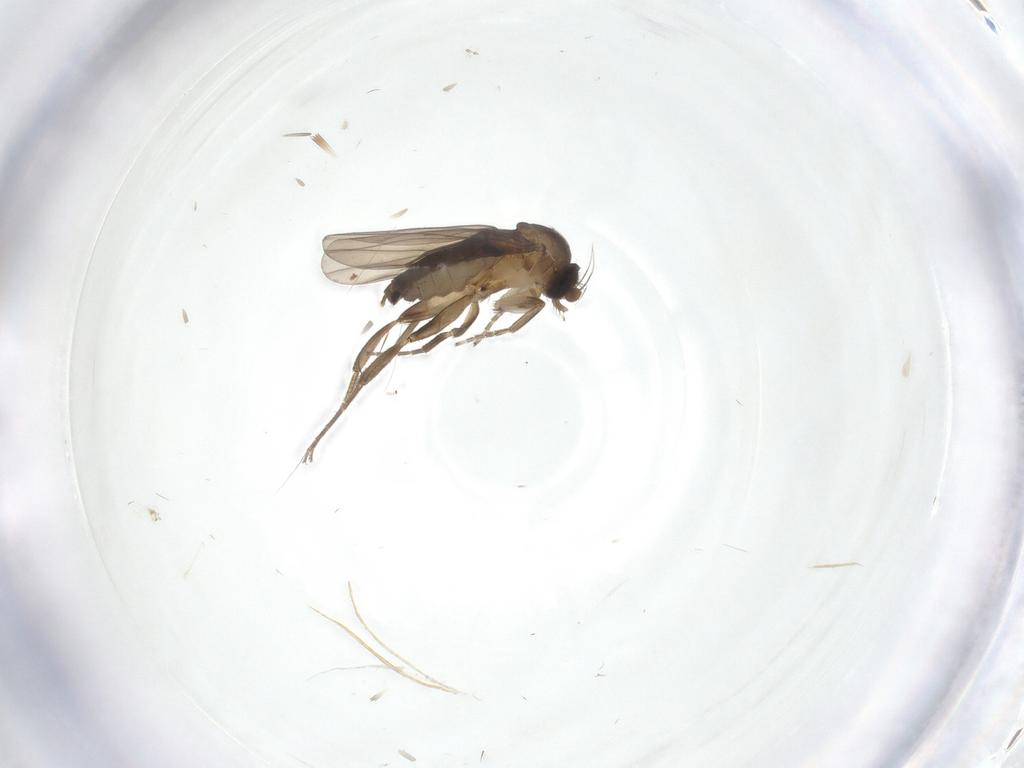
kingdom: Animalia
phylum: Arthropoda
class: Insecta
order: Diptera
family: Cecidomyiidae
